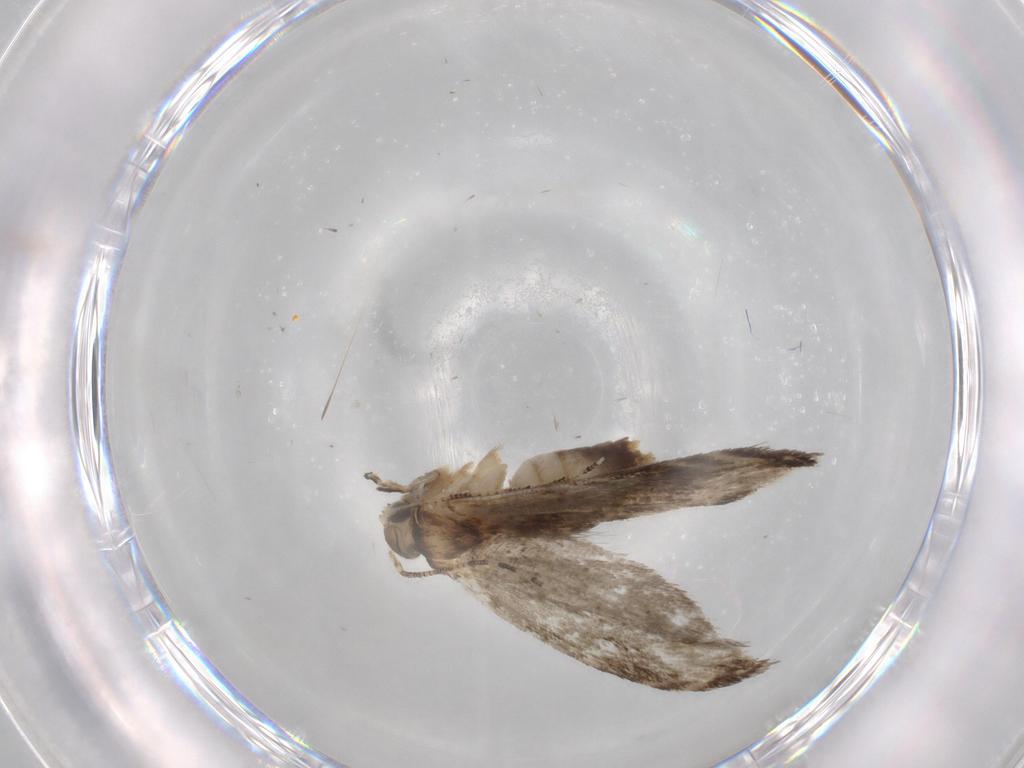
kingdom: Animalia
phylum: Arthropoda
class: Insecta
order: Lepidoptera
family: Tineidae
